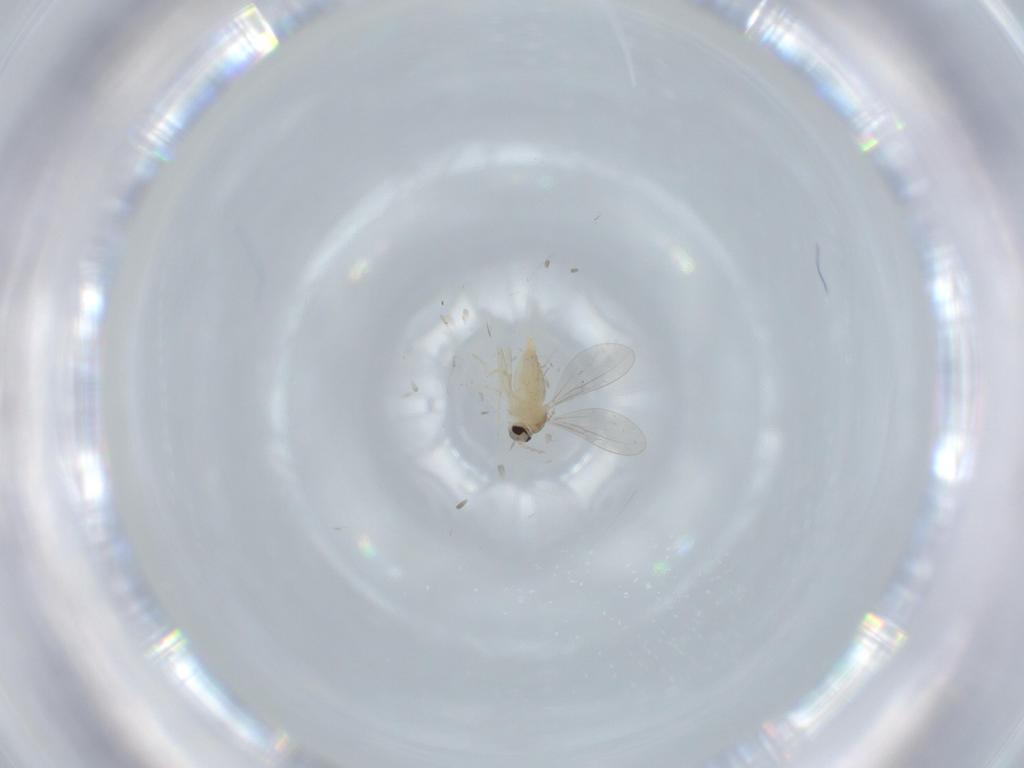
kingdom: Animalia
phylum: Arthropoda
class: Insecta
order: Diptera
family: Cecidomyiidae
